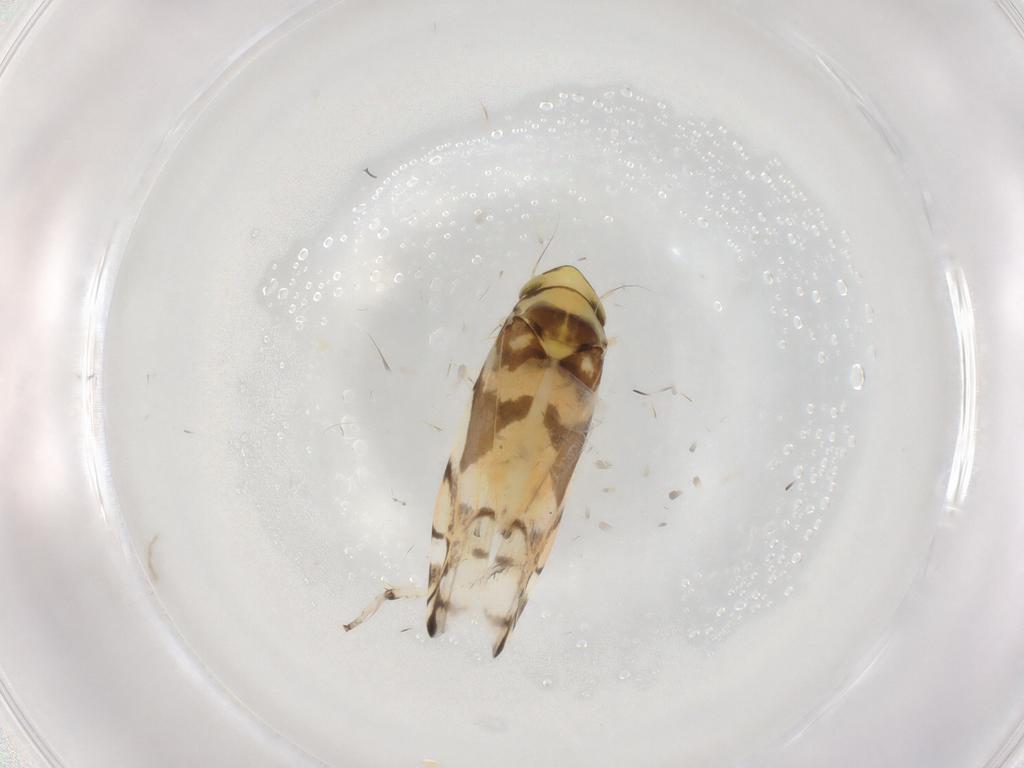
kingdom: Animalia
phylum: Arthropoda
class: Insecta
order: Hemiptera
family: Cicadellidae
